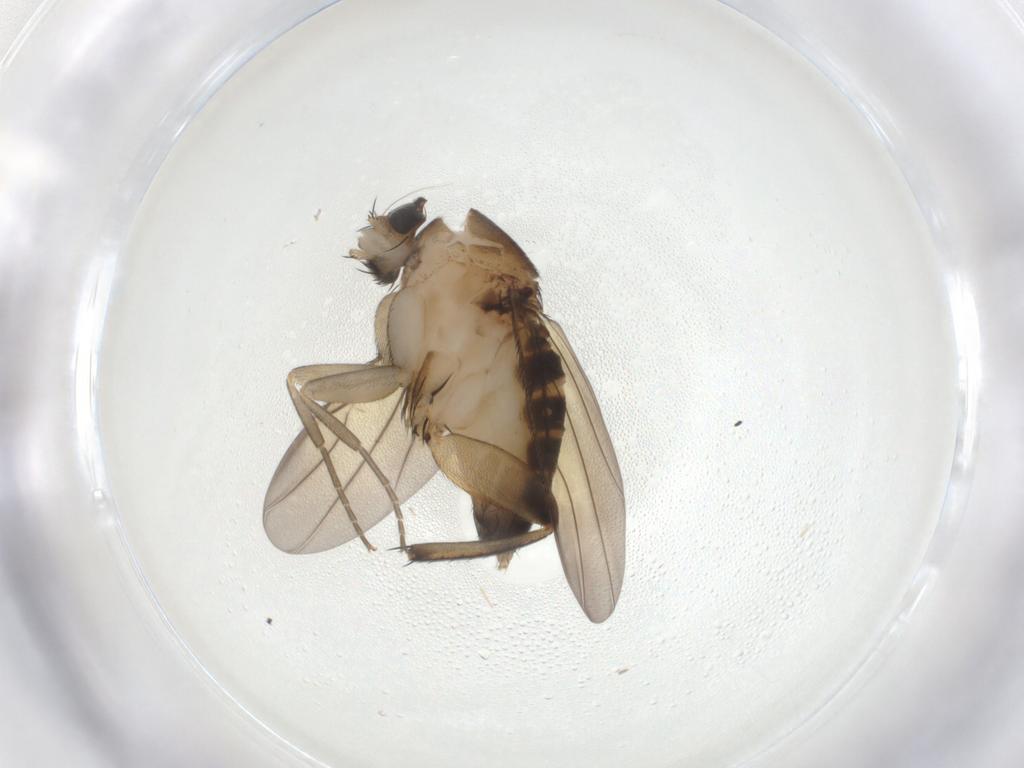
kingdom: Animalia
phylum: Arthropoda
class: Insecta
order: Diptera
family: Phoridae
